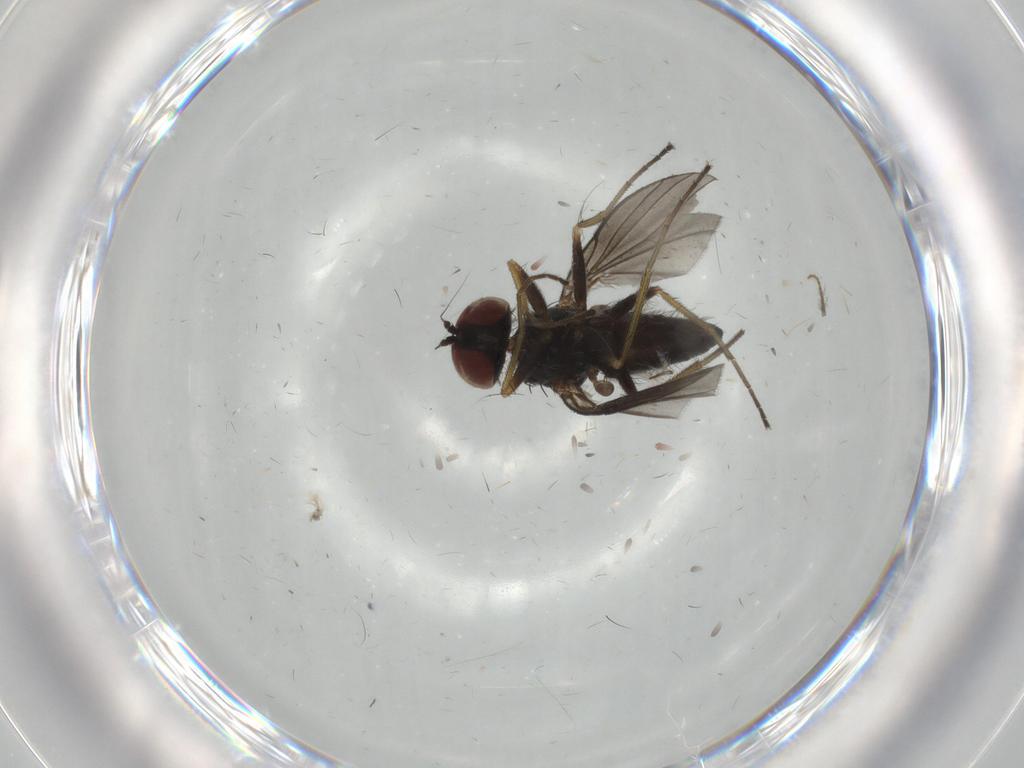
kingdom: Animalia
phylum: Arthropoda
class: Insecta
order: Diptera
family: Dolichopodidae
